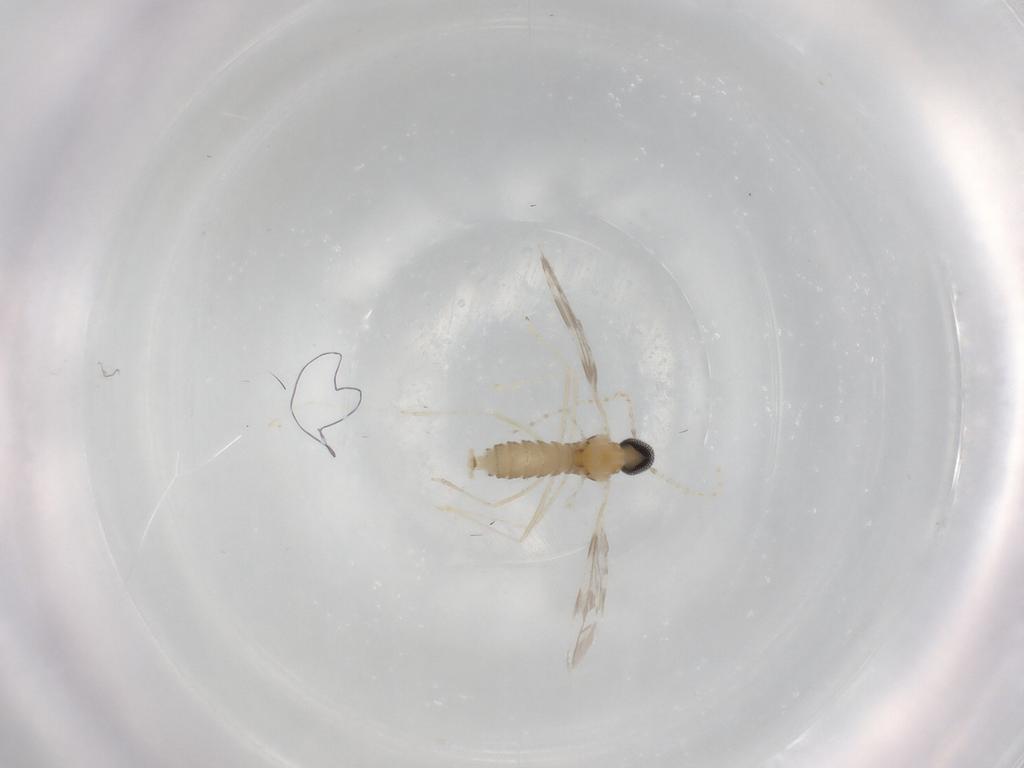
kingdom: Animalia
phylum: Arthropoda
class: Insecta
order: Diptera
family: Cecidomyiidae
